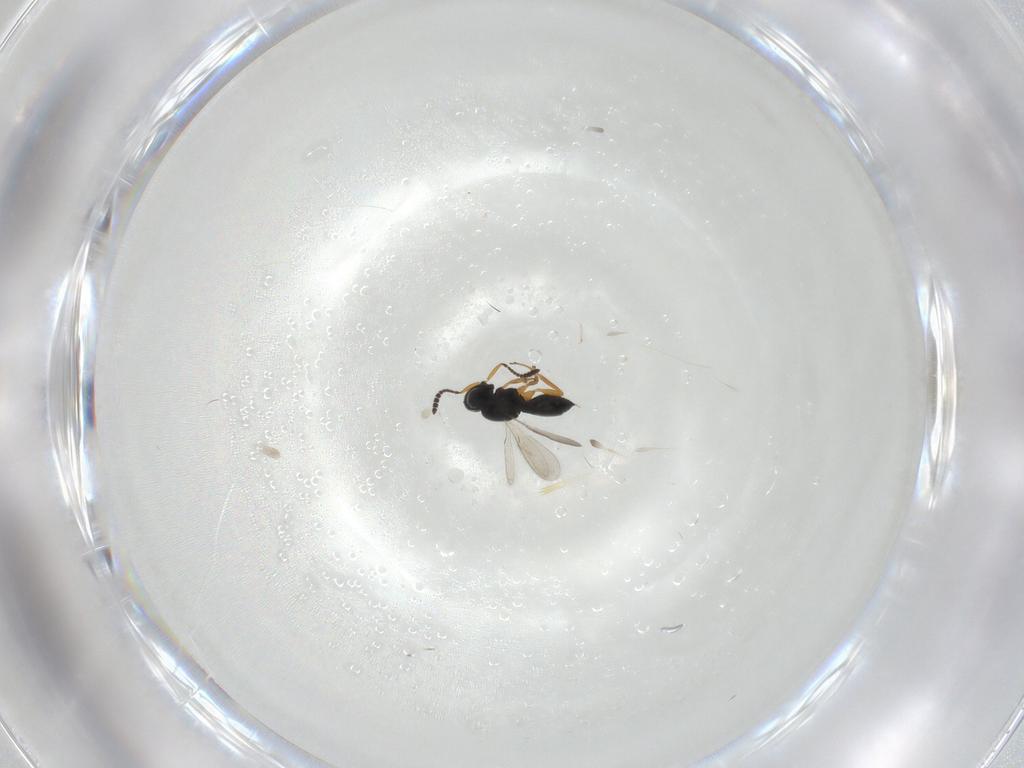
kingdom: Animalia
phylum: Arthropoda
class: Insecta
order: Hymenoptera
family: Scelionidae
